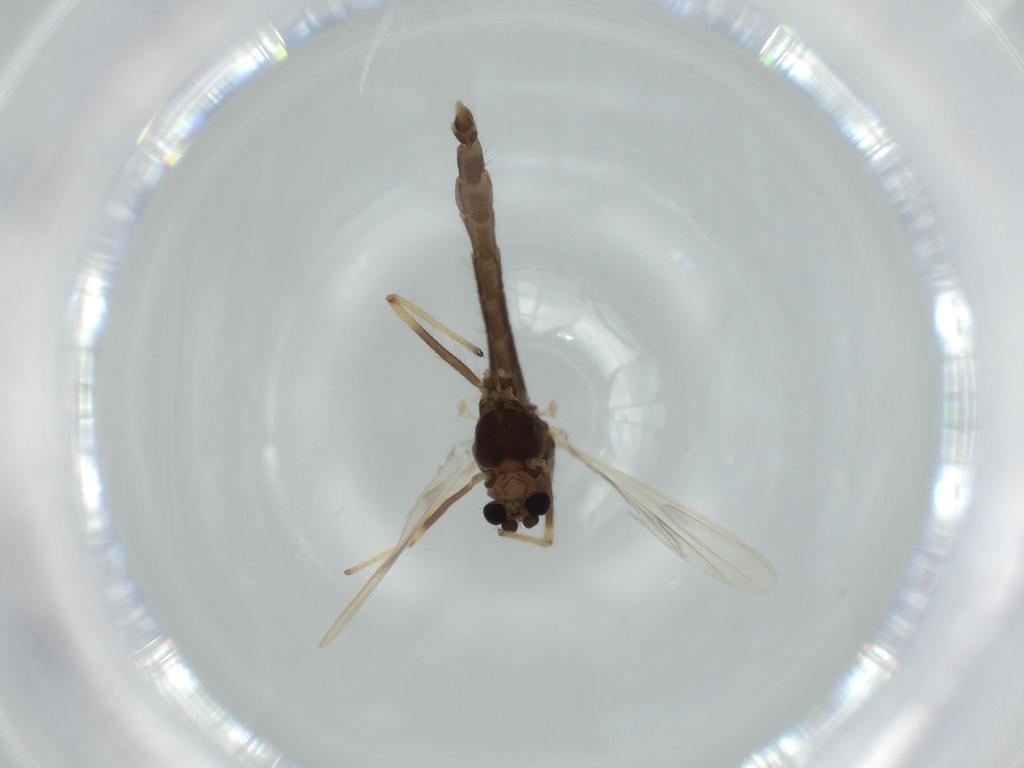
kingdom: Animalia
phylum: Arthropoda
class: Insecta
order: Diptera
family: Chironomidae
